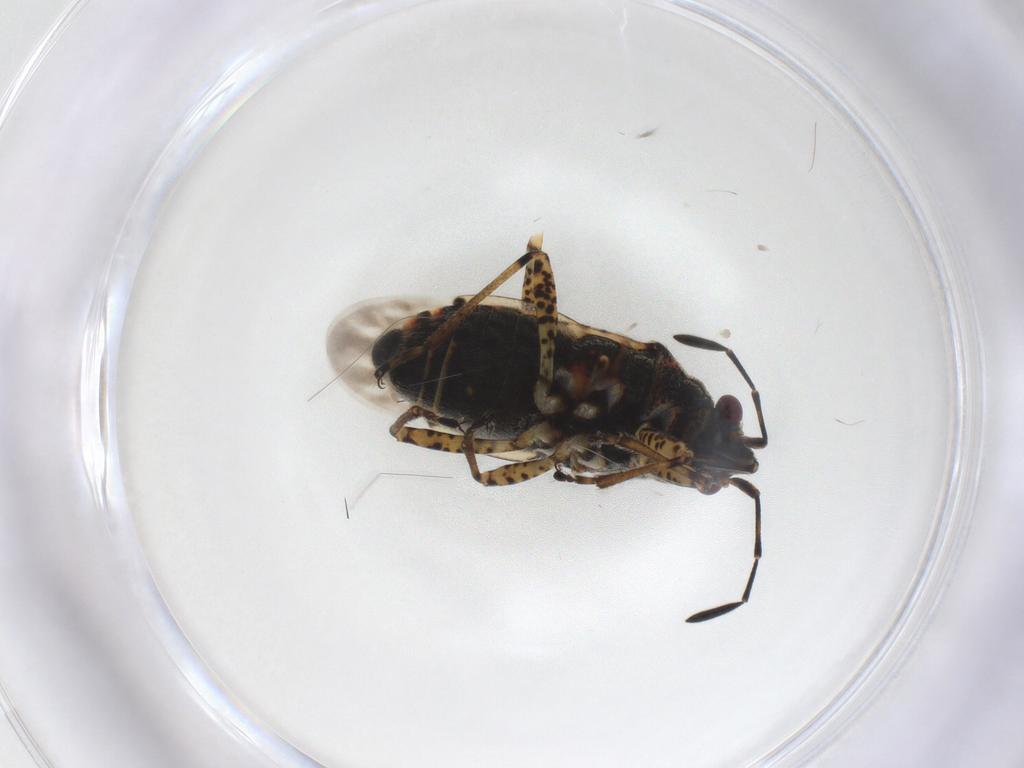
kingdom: Animalia
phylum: Arthropoda
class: Insecta
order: Hemiptera
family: Lygaeidae
